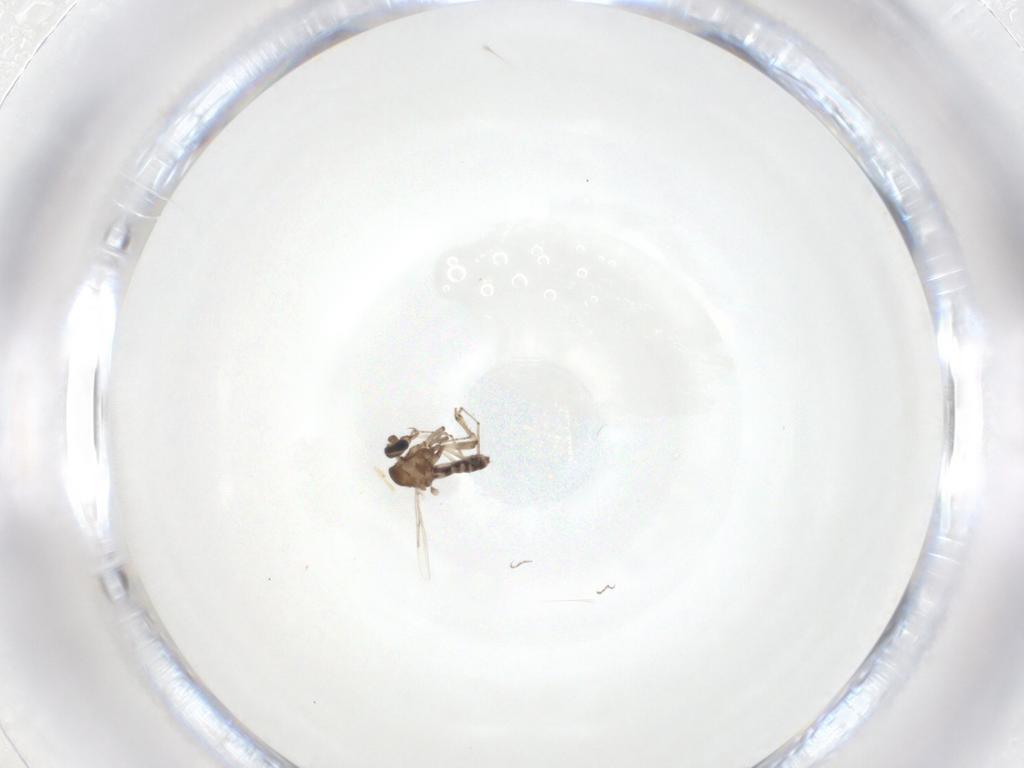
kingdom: Animalia
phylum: Arthropoda
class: Insecta
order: Diptera
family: Ceratopogonidae
